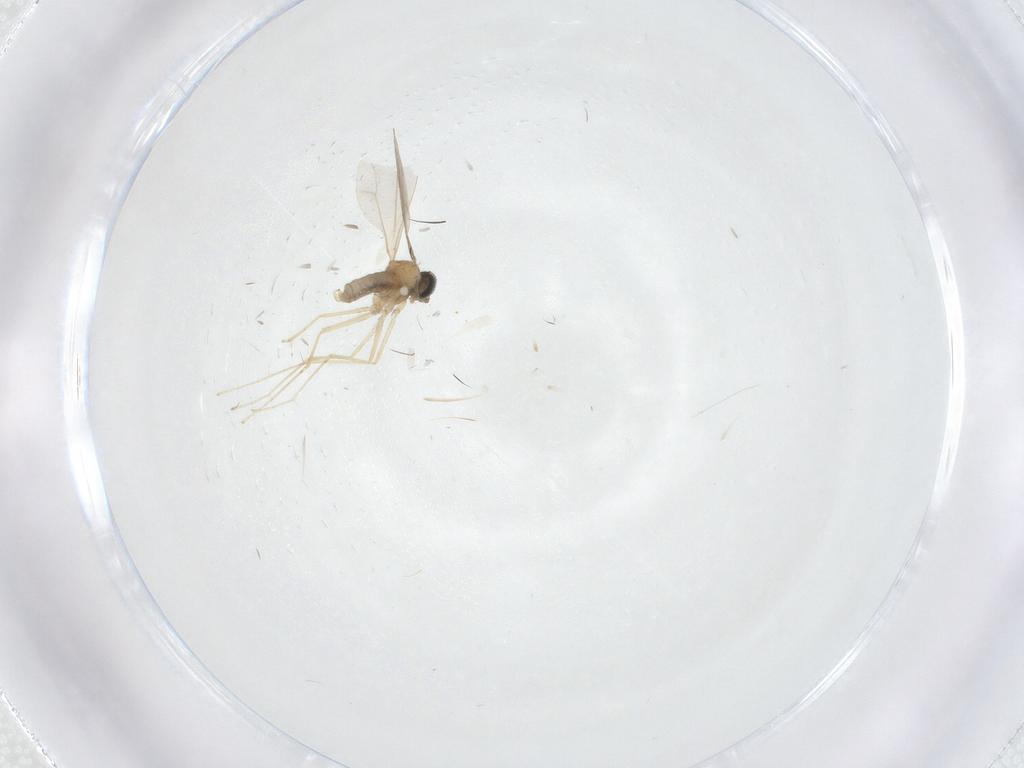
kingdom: Animalia
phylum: Arthropoda
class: Insecta
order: Diptera
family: Cecidomyiidae
